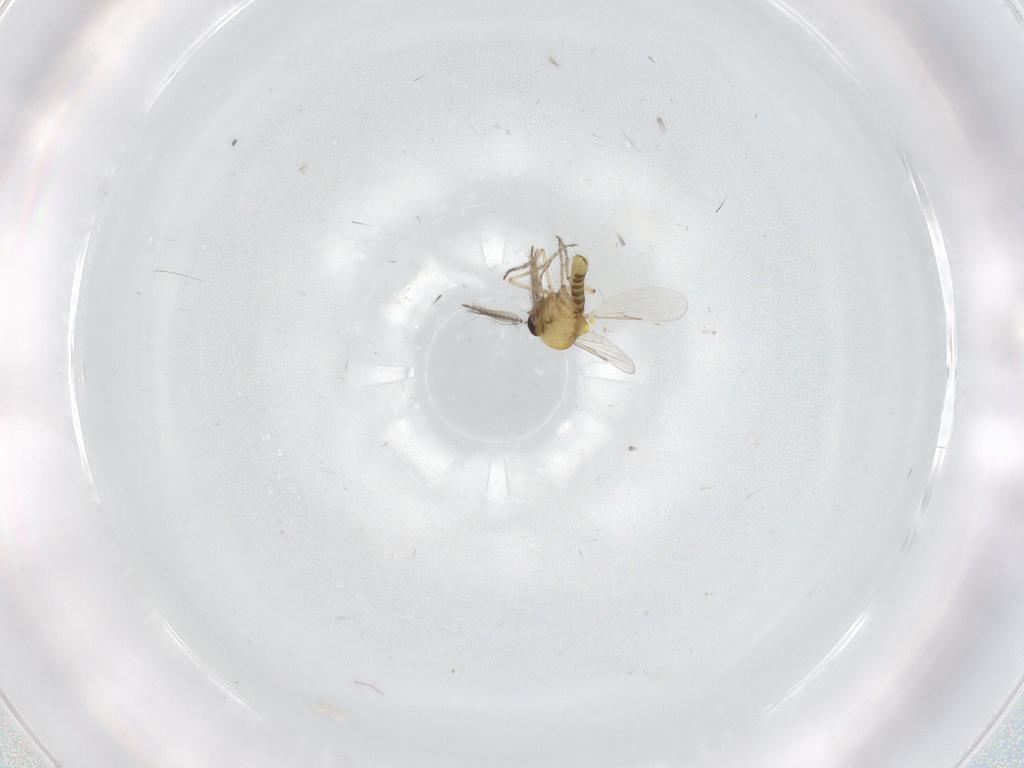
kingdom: Animalia
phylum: Arthropoda
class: Insecta
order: Diptera
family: Ceratopogonidae
